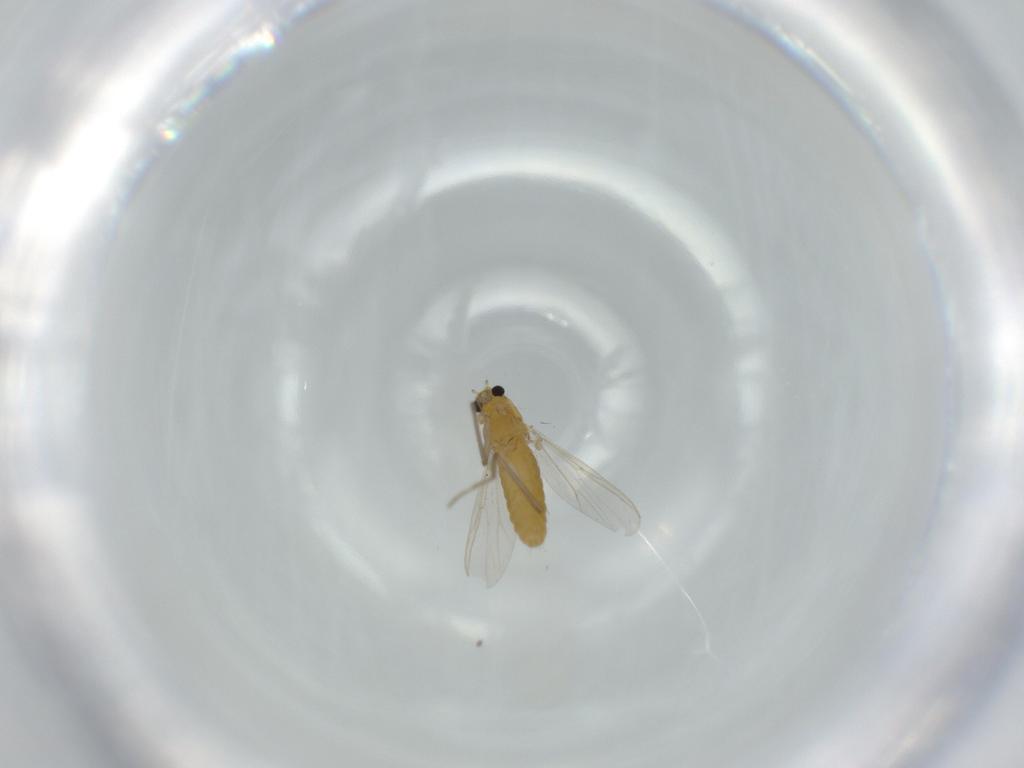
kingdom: Animalia
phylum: Arthropoda
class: Insecta
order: Diptera
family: Chironomidae
